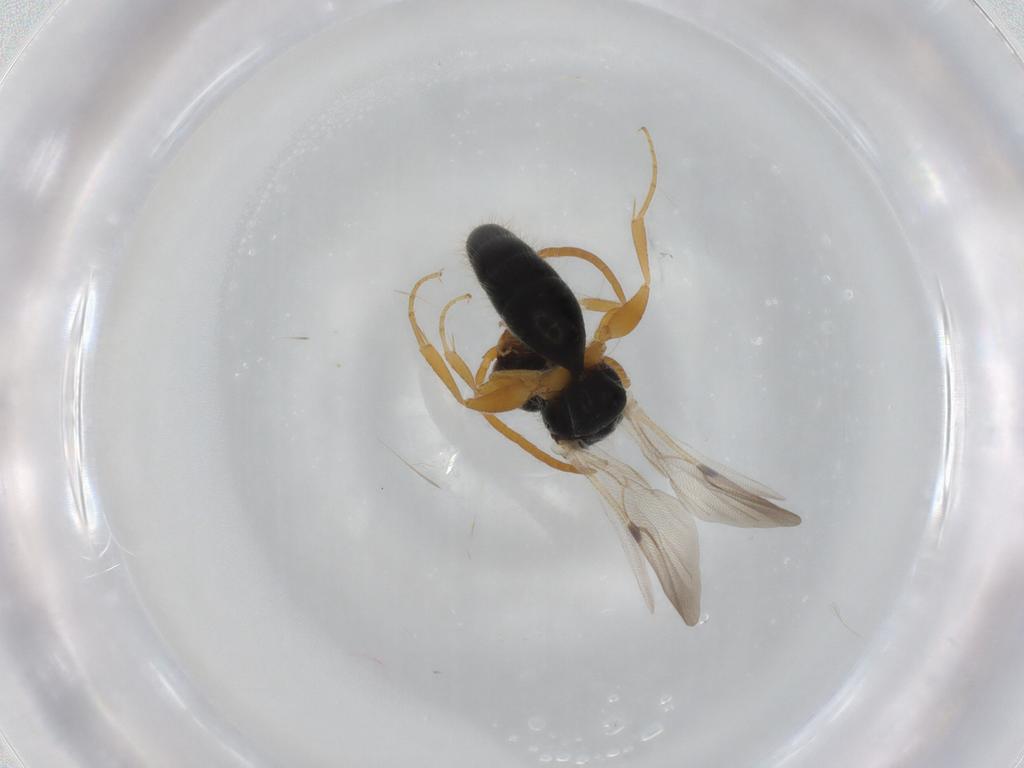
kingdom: Animalia
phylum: Arthropoda
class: Insecta
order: Hymenoptera
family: Bethylidae
